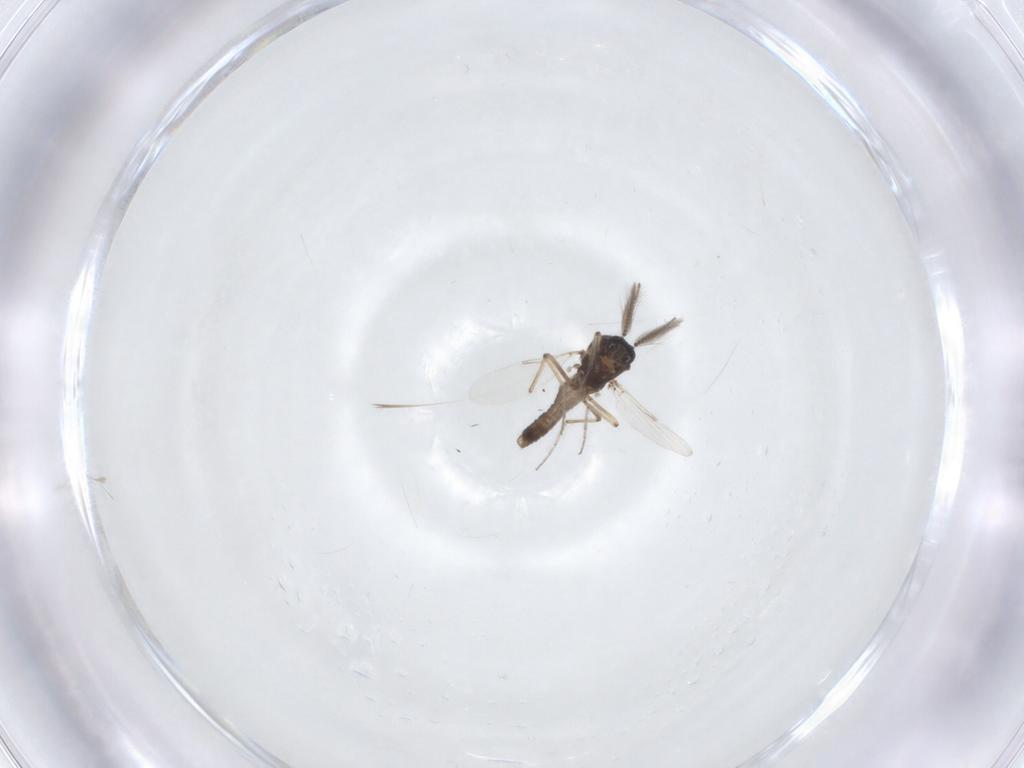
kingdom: Animalia
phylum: Arthropoda
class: Insecta
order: Diptera
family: Ceratopogonidae
